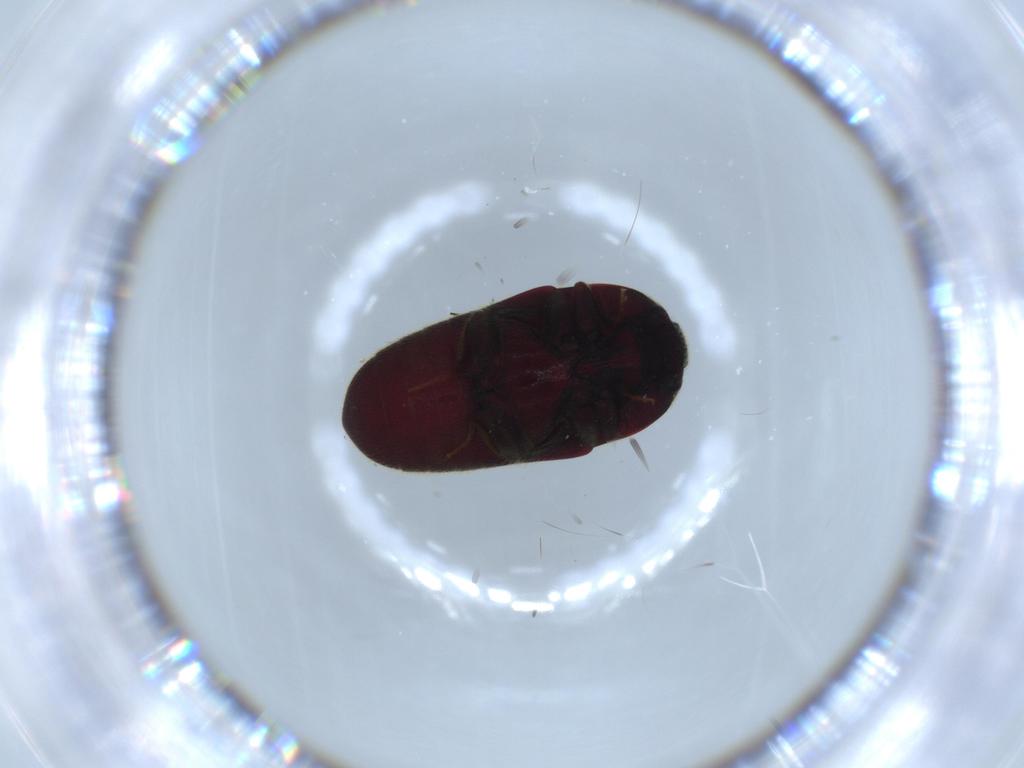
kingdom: Animalia
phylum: Arthropoda
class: Insecta
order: Coleoptera
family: Throscidae
